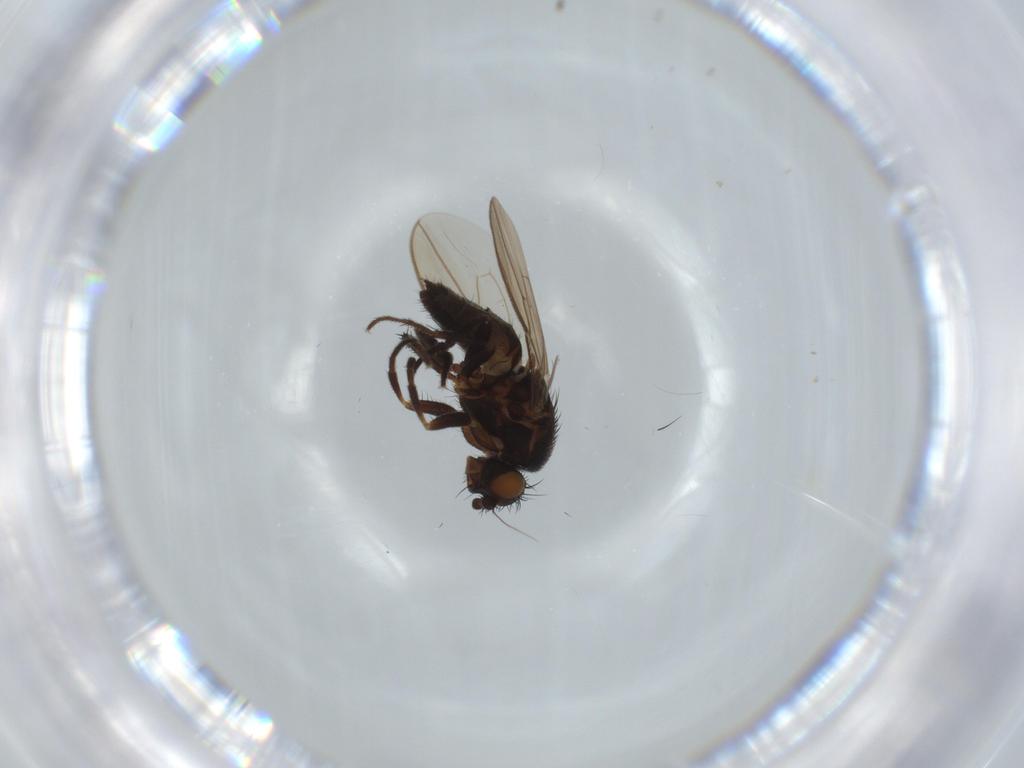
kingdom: Animalia
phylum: Arthropoda
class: Insecta
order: Diptera
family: Sphaeroceridae
